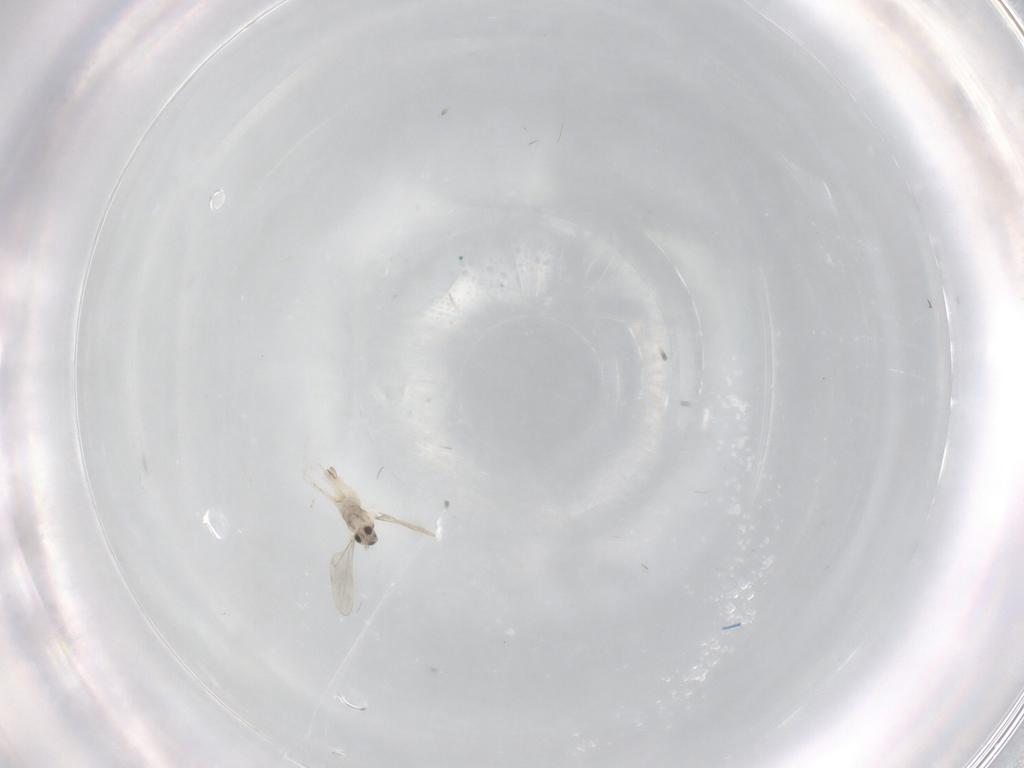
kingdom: Animalia
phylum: Arthropoda
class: Insecta
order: Diptera
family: Cecidomyiidae
